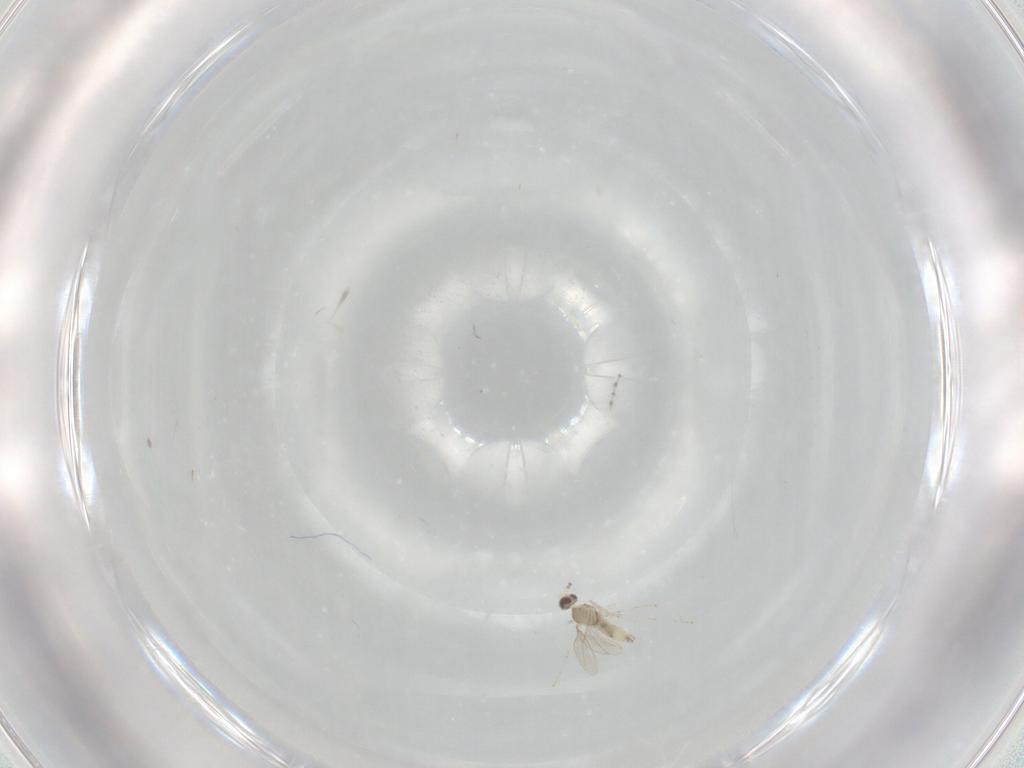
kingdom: Animalia
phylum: Arthropoda
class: Insecta
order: Diptera
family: Cecidomyiidae
